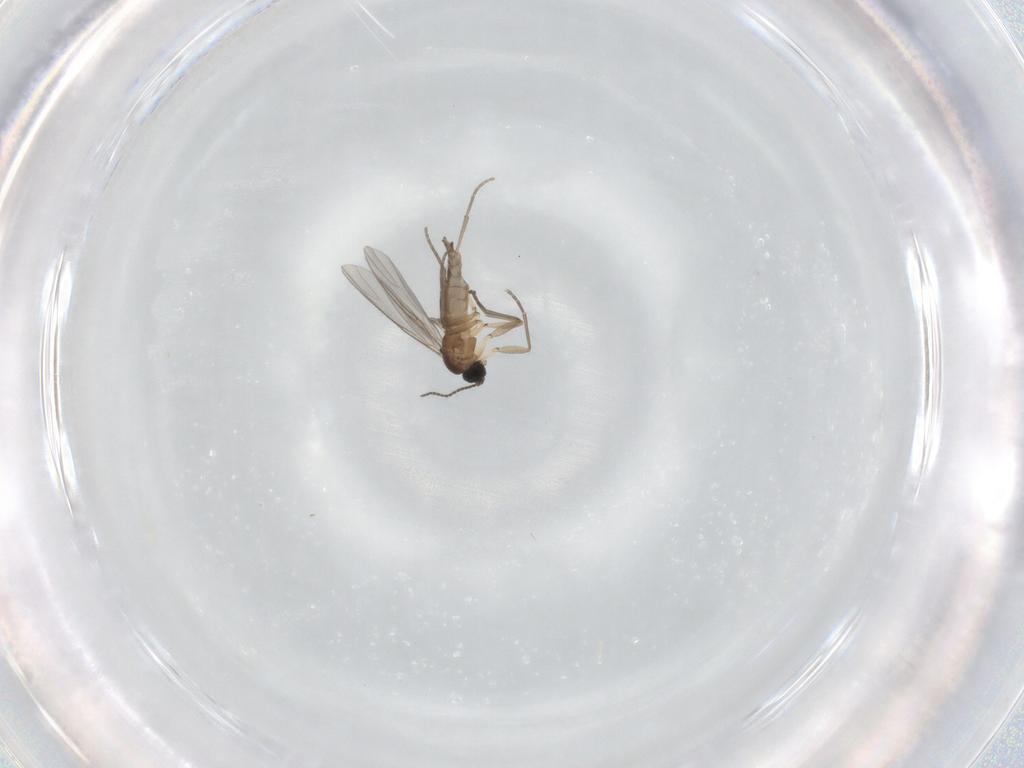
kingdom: Animalia
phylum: Arthropoda
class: Insecta
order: Diptera
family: Sciaridae
